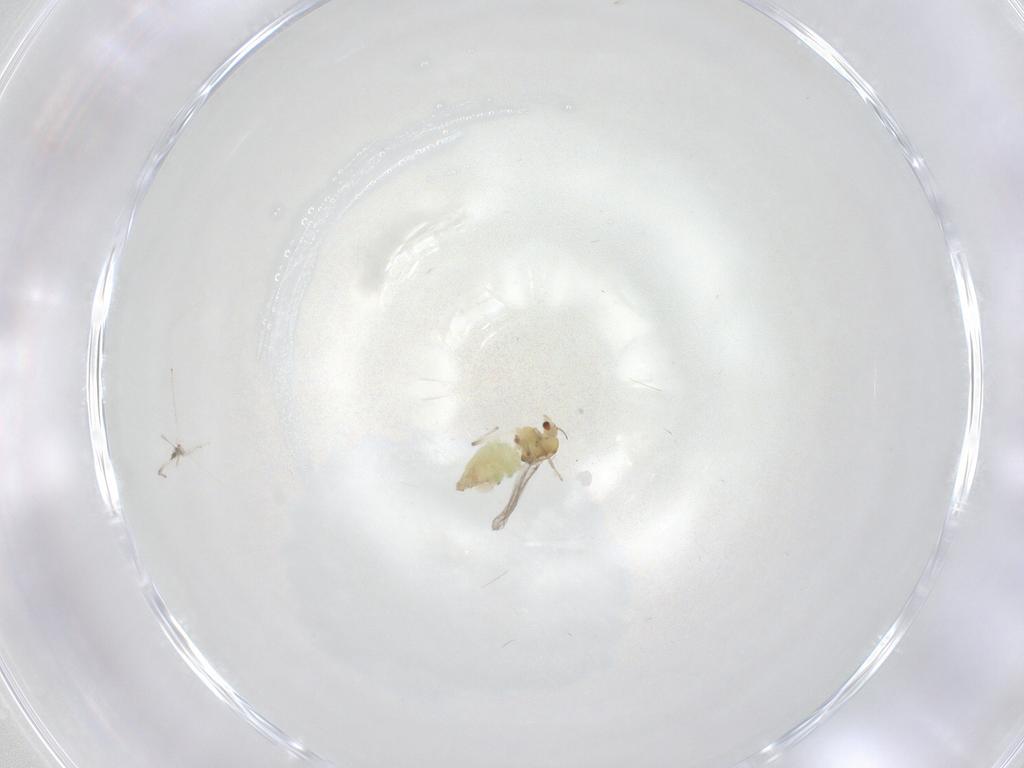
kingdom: Animalia
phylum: Arthropoda
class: Insecta
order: Diptera
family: Chironomidae
